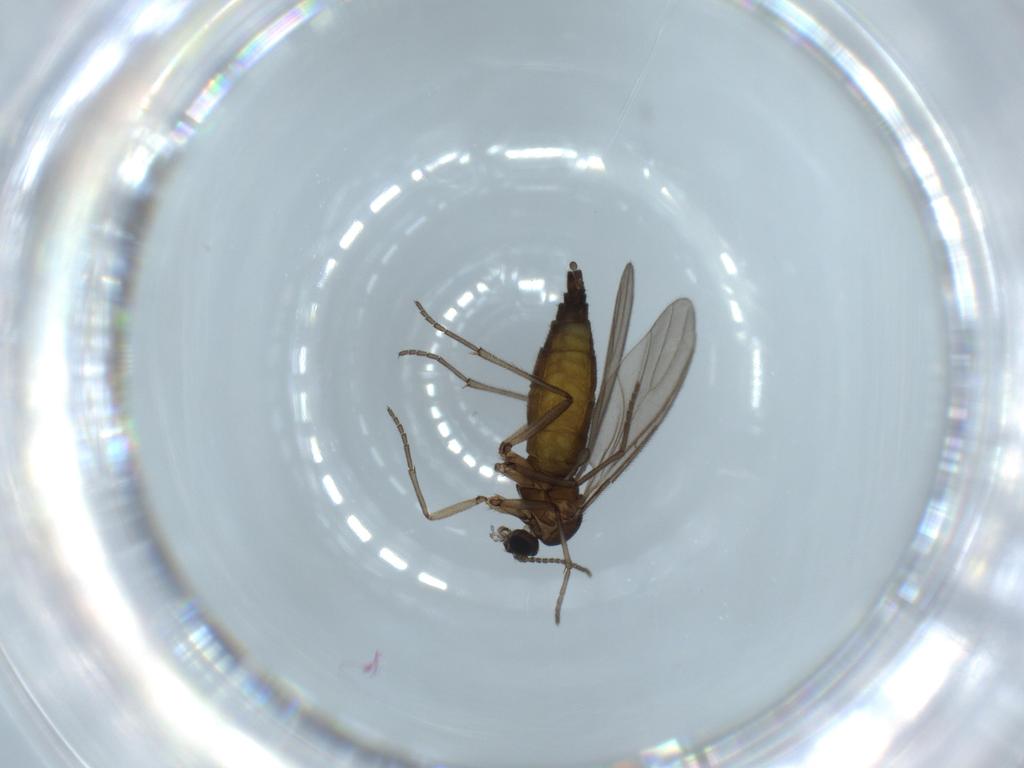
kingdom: Animalia
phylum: Arthropoda
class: Insecta
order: Diptera
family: Sciaridae
